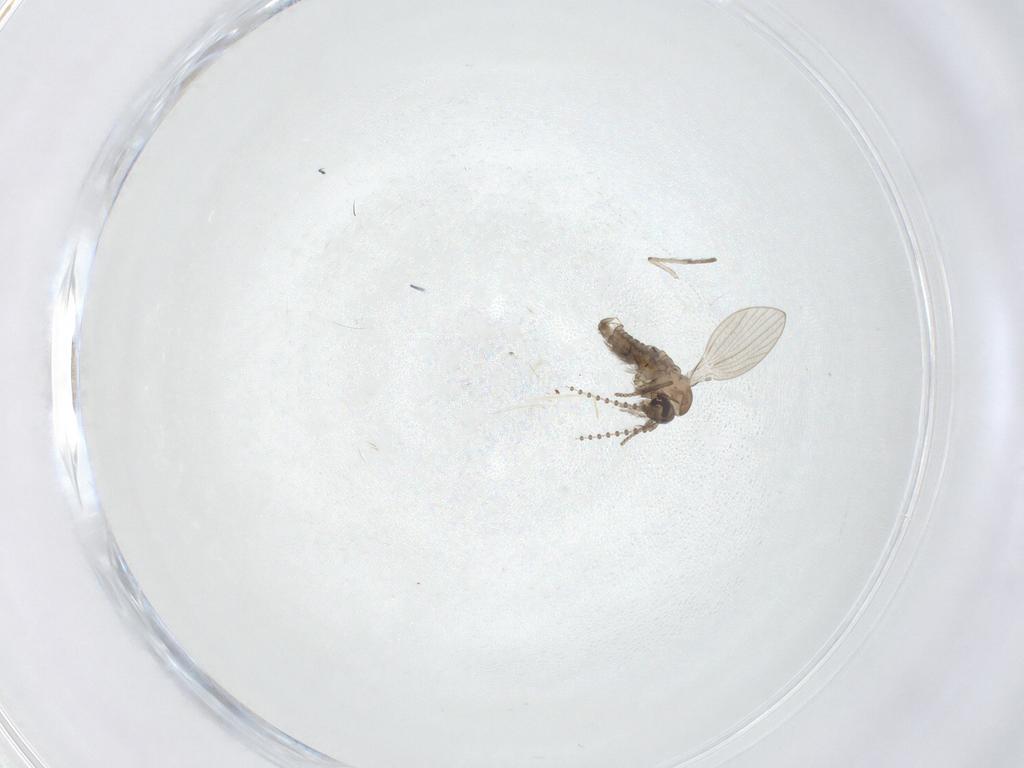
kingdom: Animalia
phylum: Arthropoda
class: Insecta
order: Diptera
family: Psychodidae
